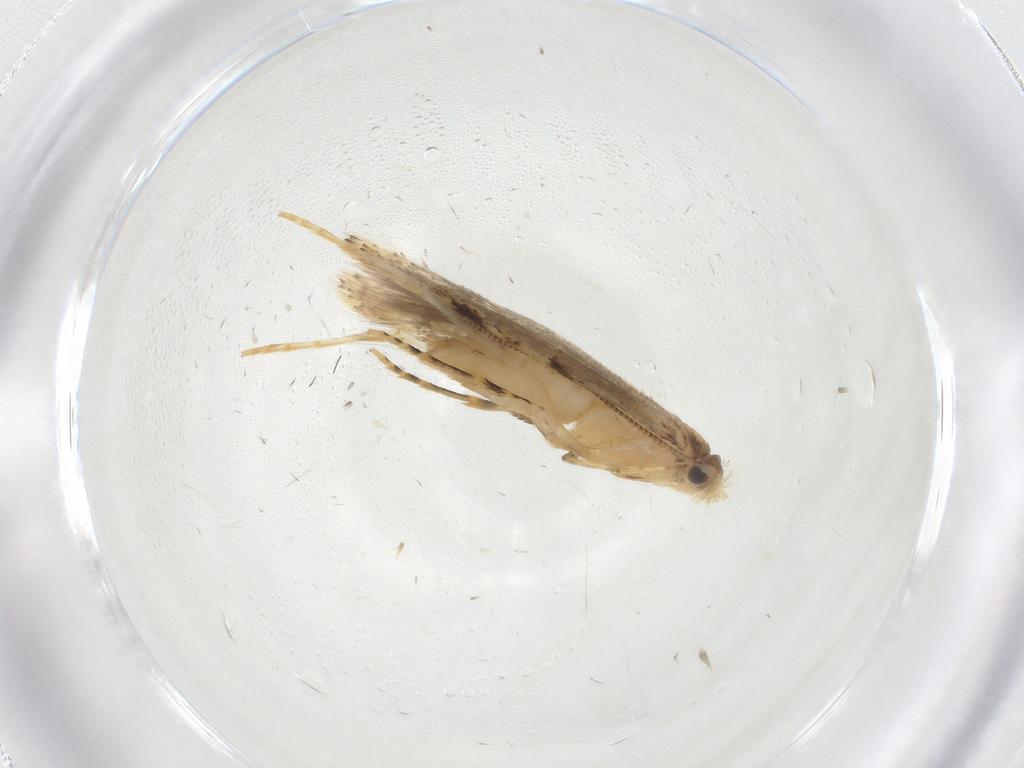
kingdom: Animalia
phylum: Arthropoda
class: Insecta
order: Lepidoptera
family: Tineidae
